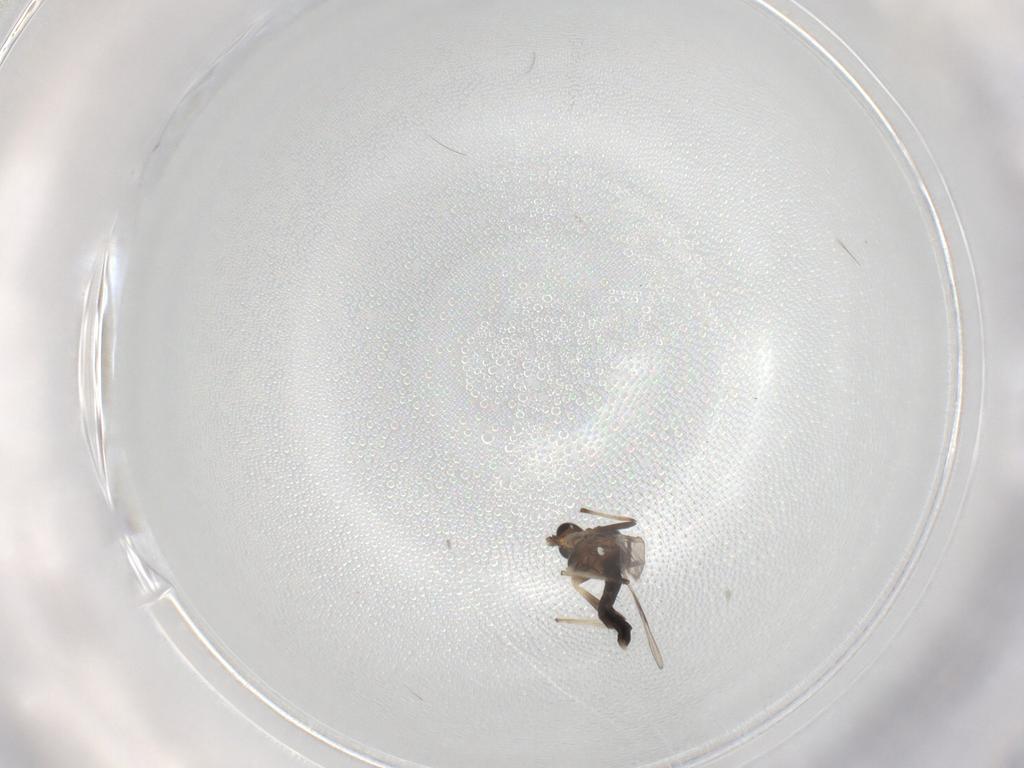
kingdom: Animalia
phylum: Arthropoda
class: Insecta
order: Diptera
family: Chironomidae
